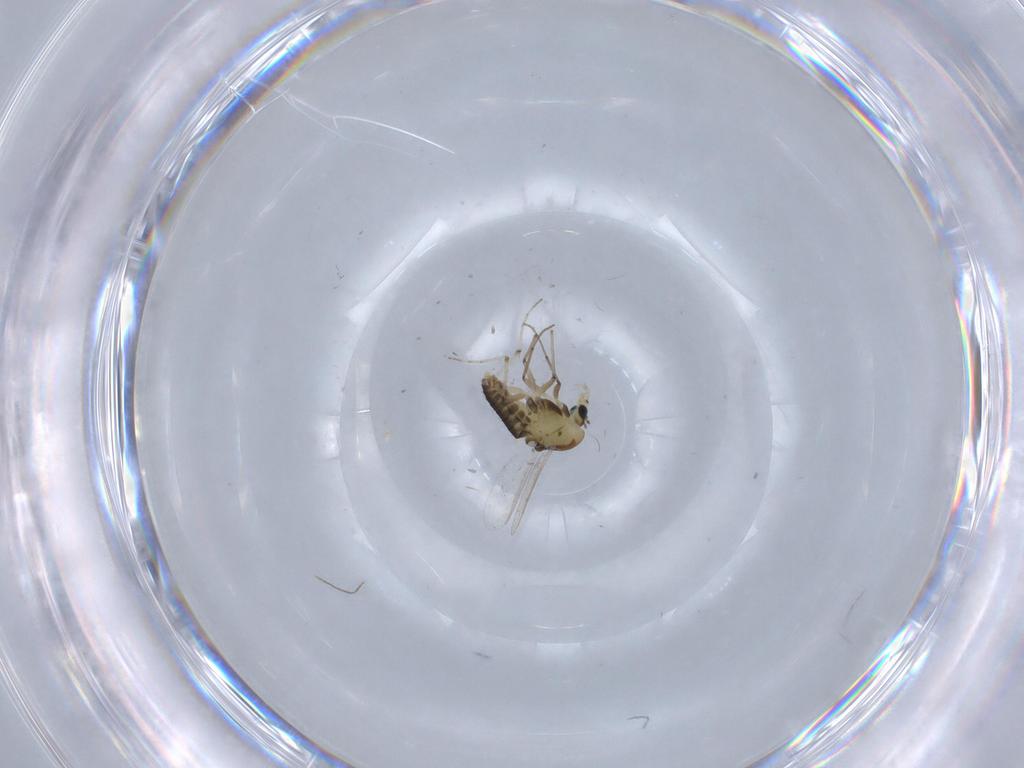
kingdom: Animalia
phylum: Arthropoda
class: Insecta
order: Diptera
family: Chironomidae
